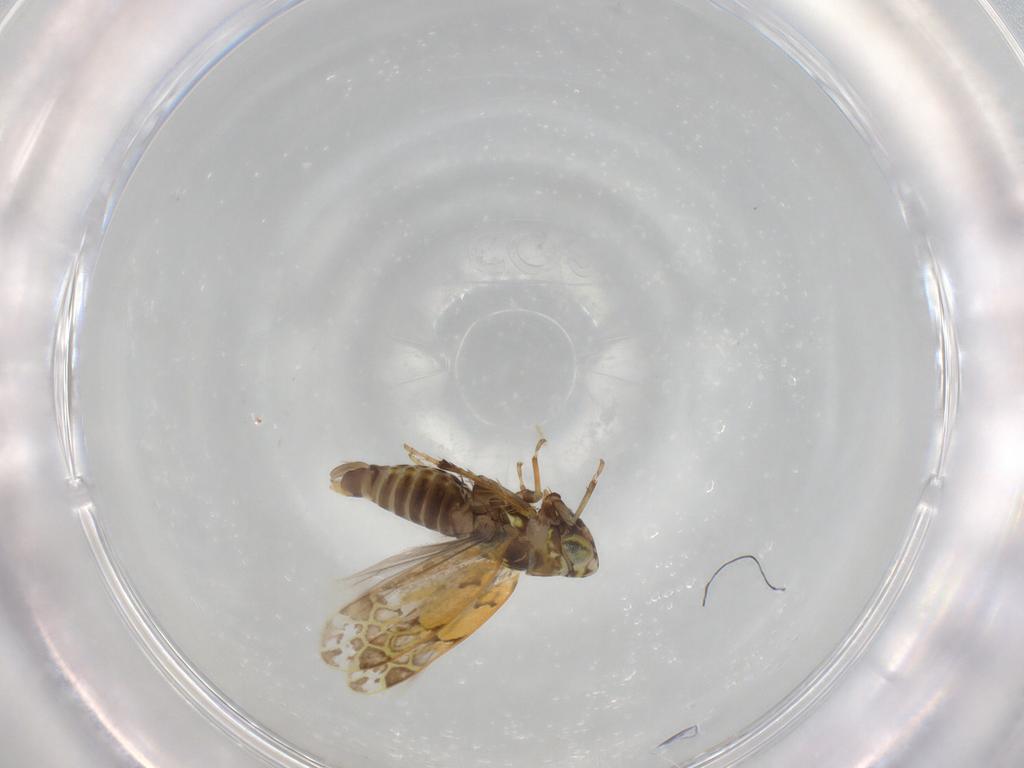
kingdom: Animalia
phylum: Arthropoda
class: Insecta
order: Hemiptera
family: Cicadellidae
